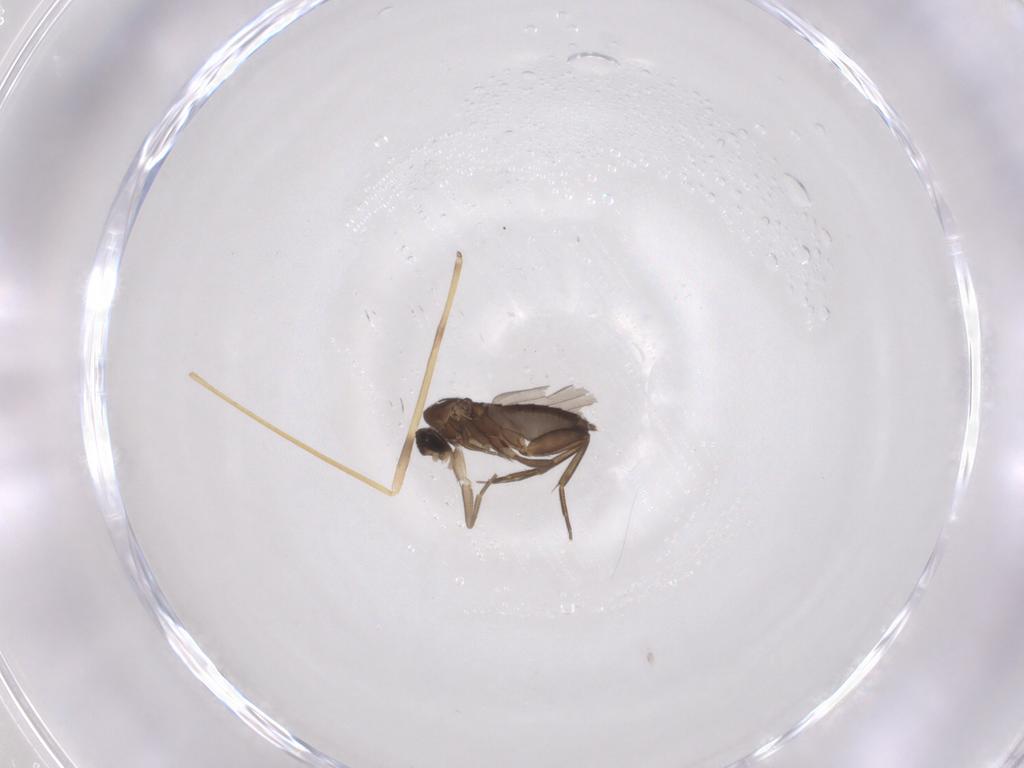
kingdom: Animalia
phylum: Arthropoda
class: Insecta
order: Diptera
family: Phoridae
